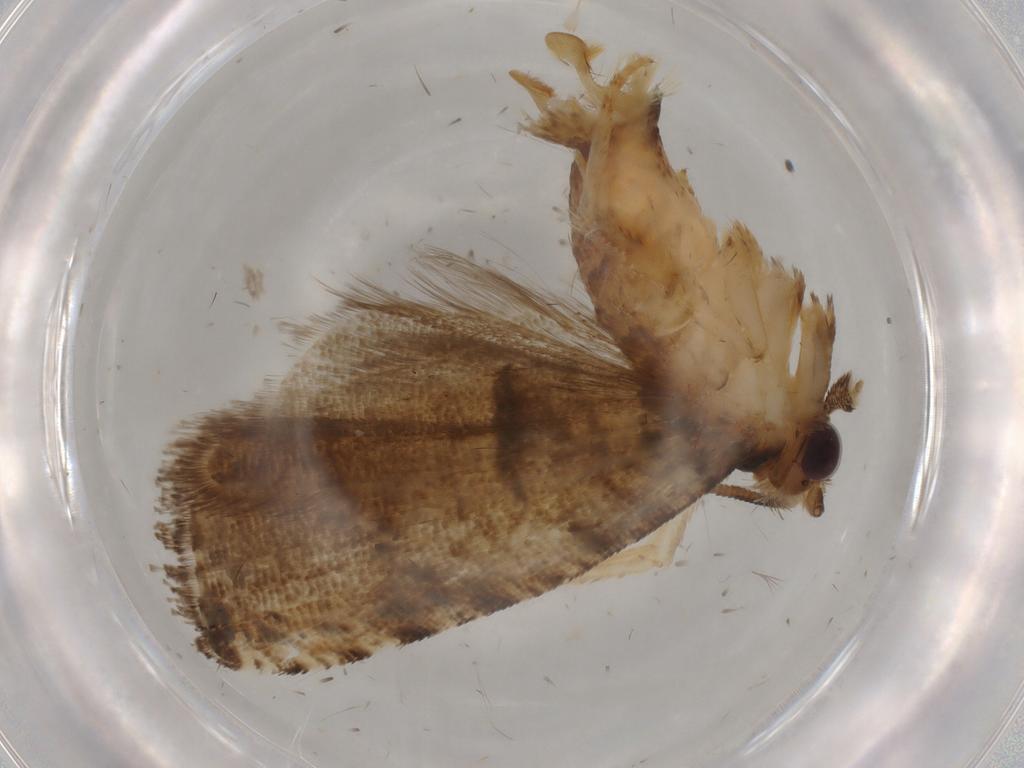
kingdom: Animalia
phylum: Arthropoda
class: Insecta
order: Lepidoptera
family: Tortricidae
